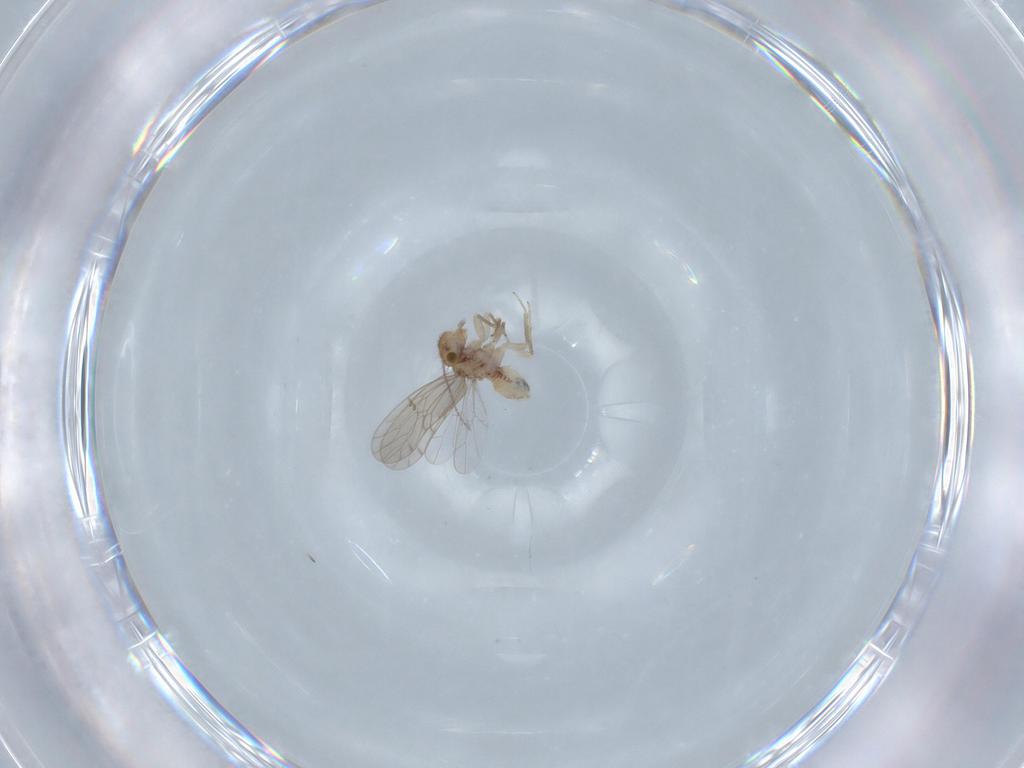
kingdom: Animalia
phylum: Arthropoda
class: Insecta
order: Psocodea
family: Ectopsocidae
